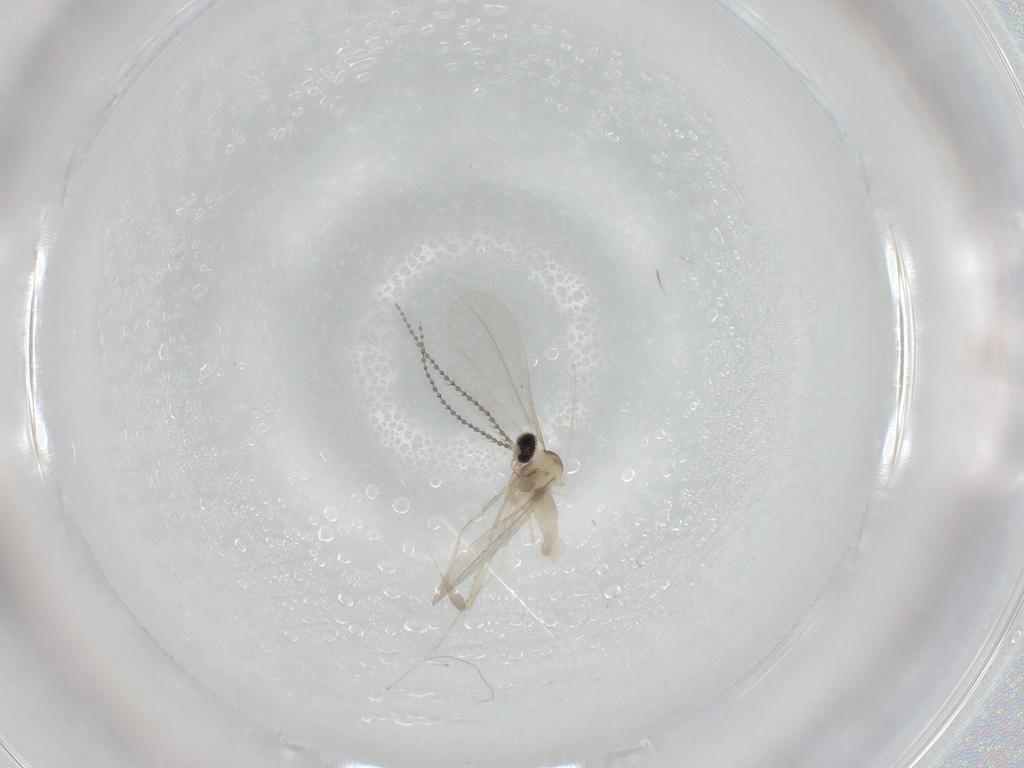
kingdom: Animalia
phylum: Arthropoda
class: Insecta
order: Diptera
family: Cecidomyiidae
